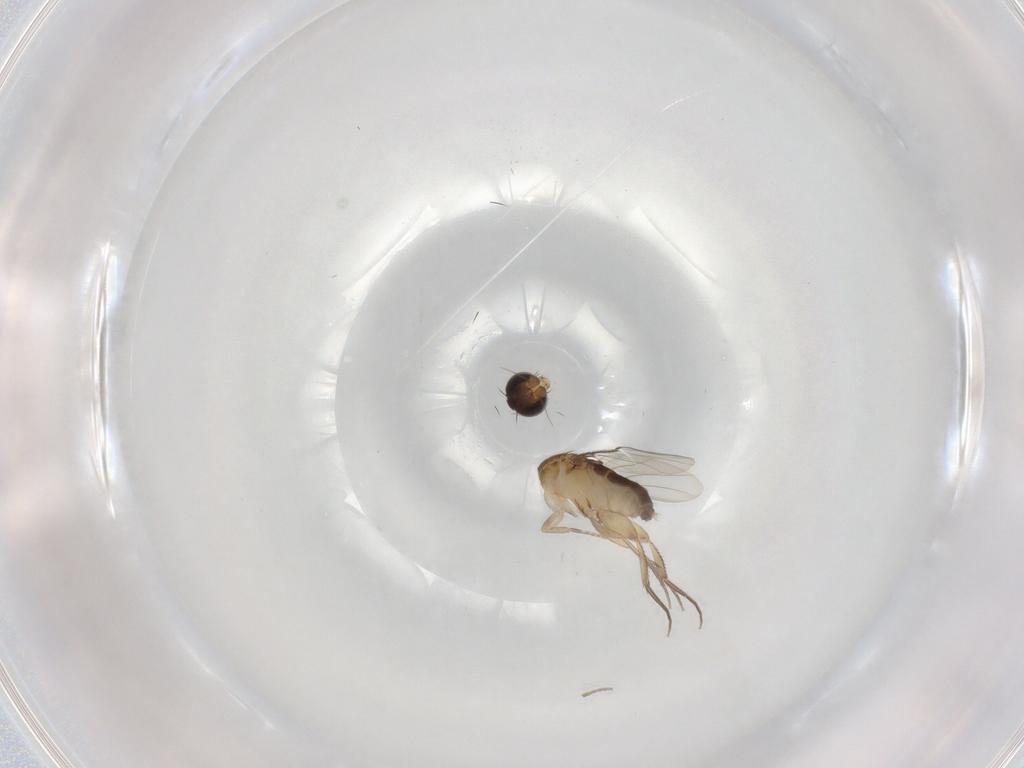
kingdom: Animalia
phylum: Arthropoda
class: Insecta
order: Diptera
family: Phoridae
